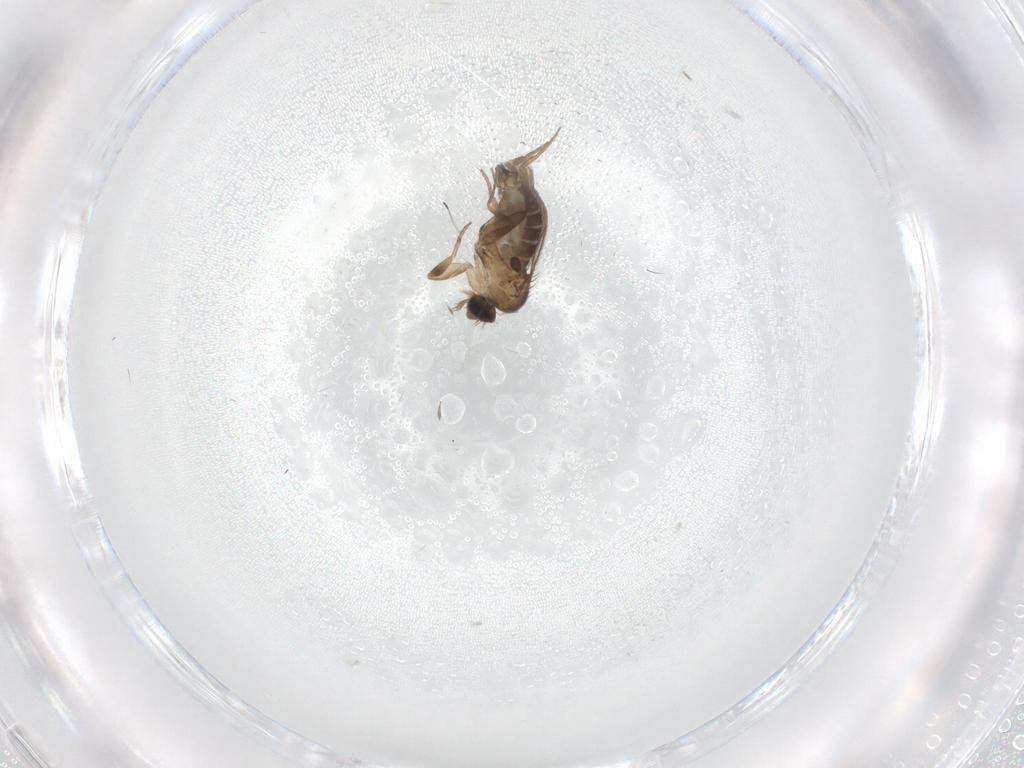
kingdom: Animalia
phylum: Arthropoda
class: Insecta
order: Diptera
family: Phoridae
